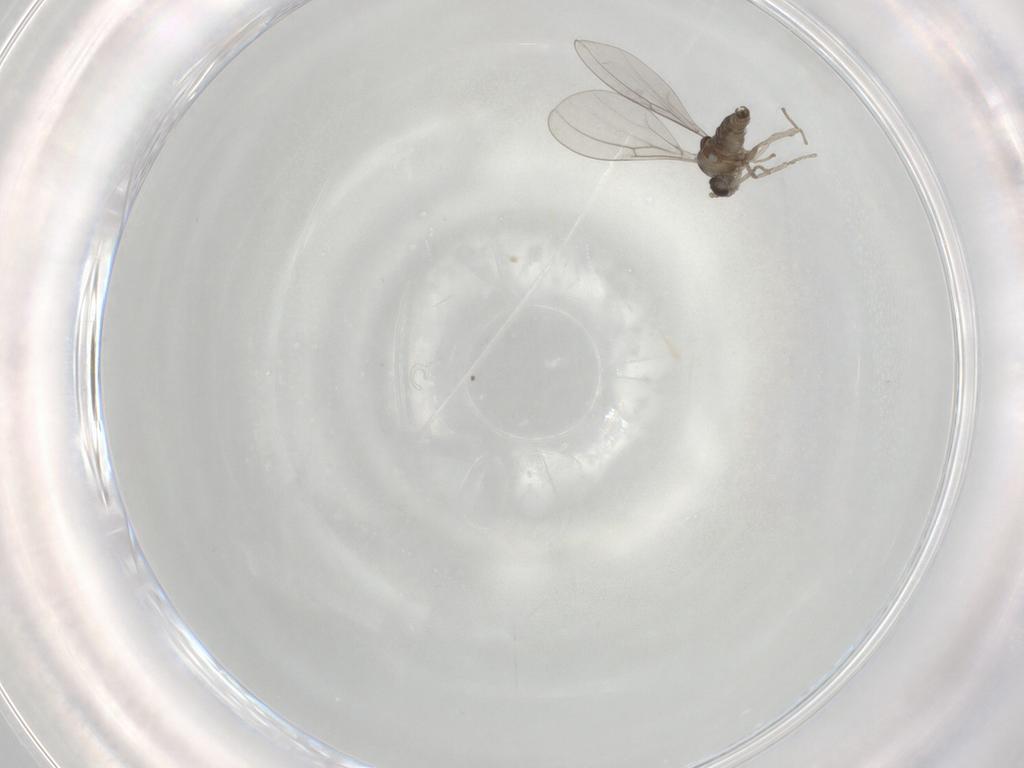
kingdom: Animalia
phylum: Arthropoda
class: Insecta
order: Diptera
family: Cecidomyiidae
